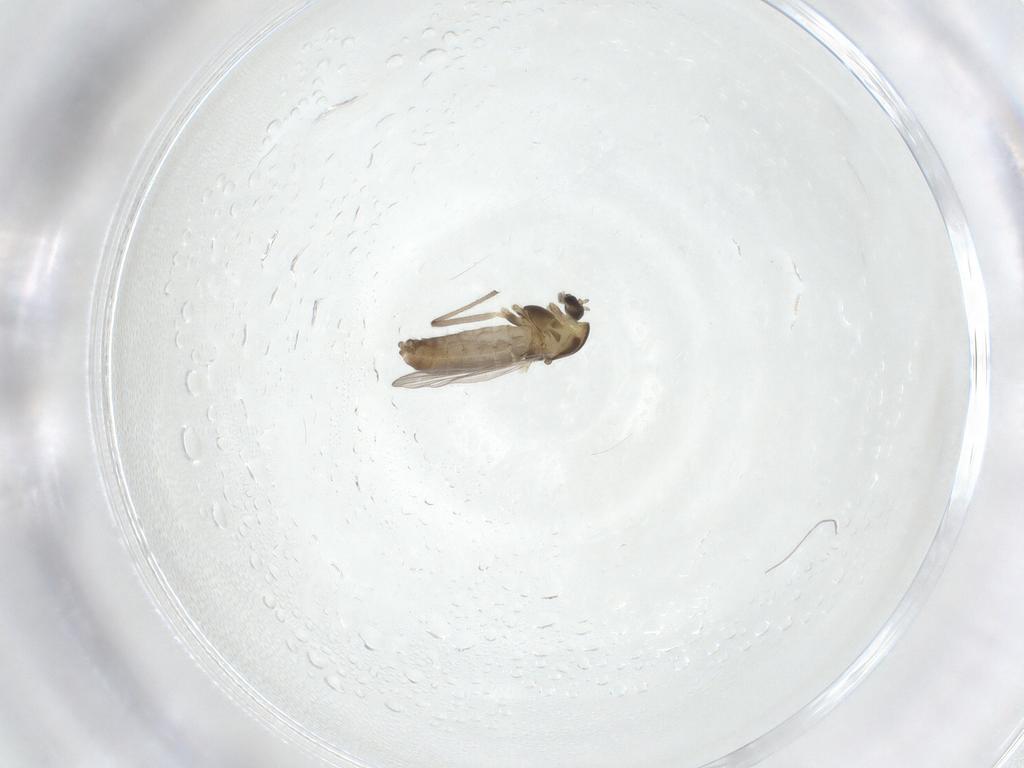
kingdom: Animalia
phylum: Arthropoda
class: Insecta
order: Diptera
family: Chironomidae
